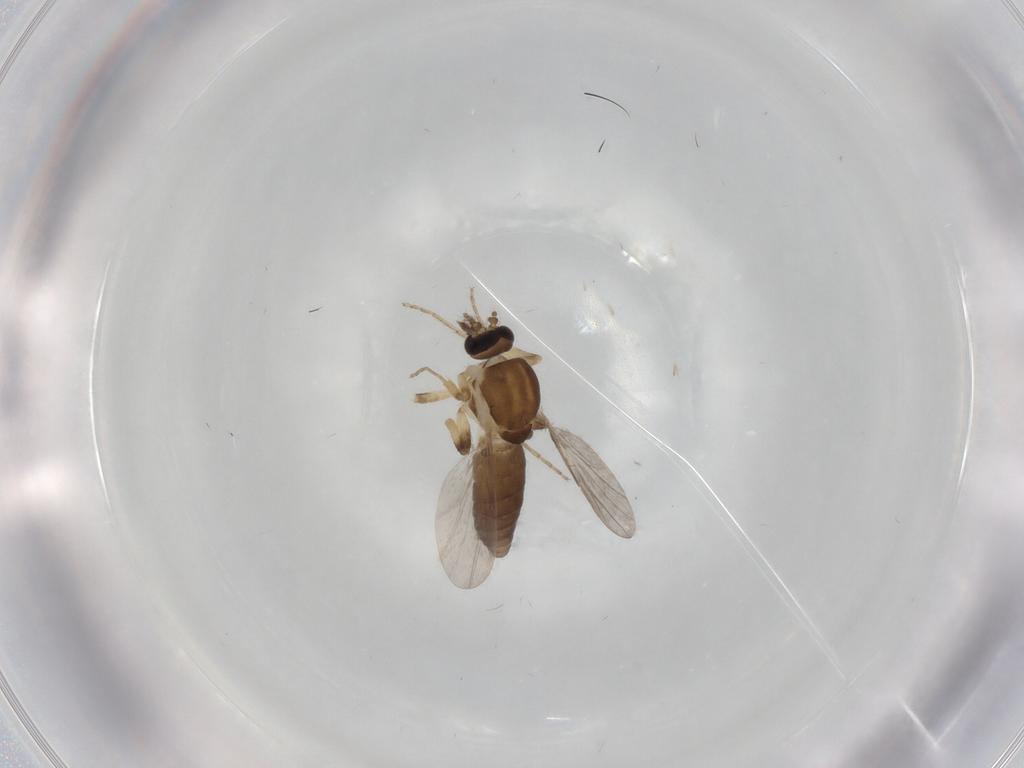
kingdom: Animalia
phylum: Arthropoda
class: Insecta
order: Diptera
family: Ceratopogonidae
